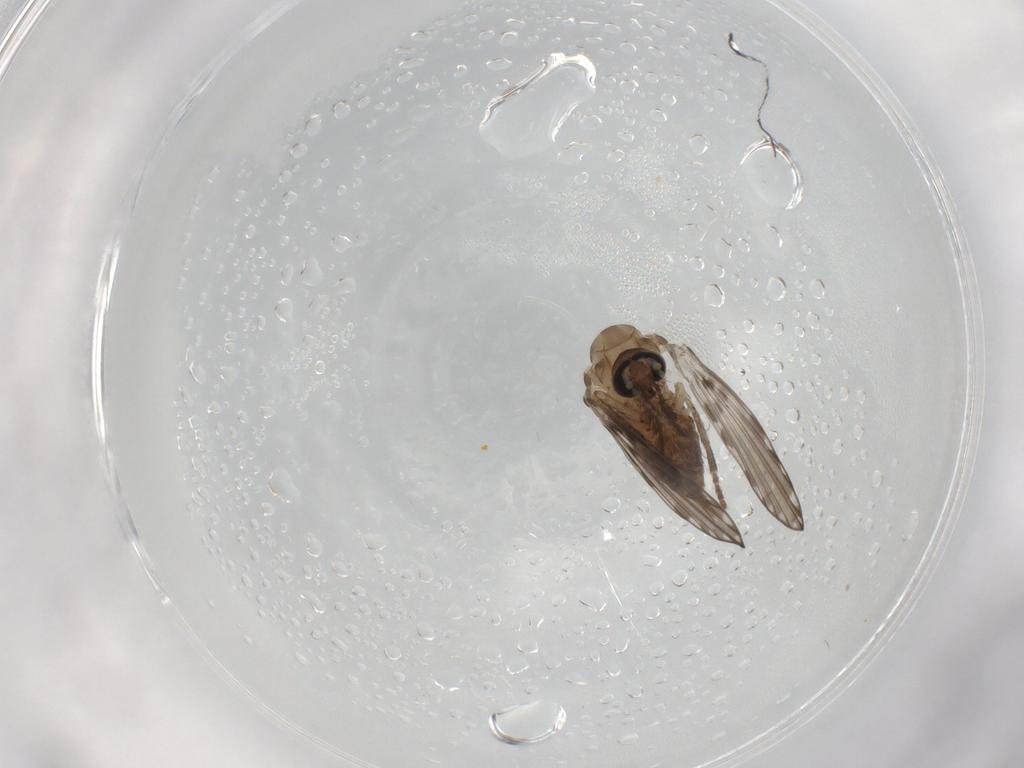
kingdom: Animalia
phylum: Arthropoda
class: Insecta
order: Diptera
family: Psychodidae
